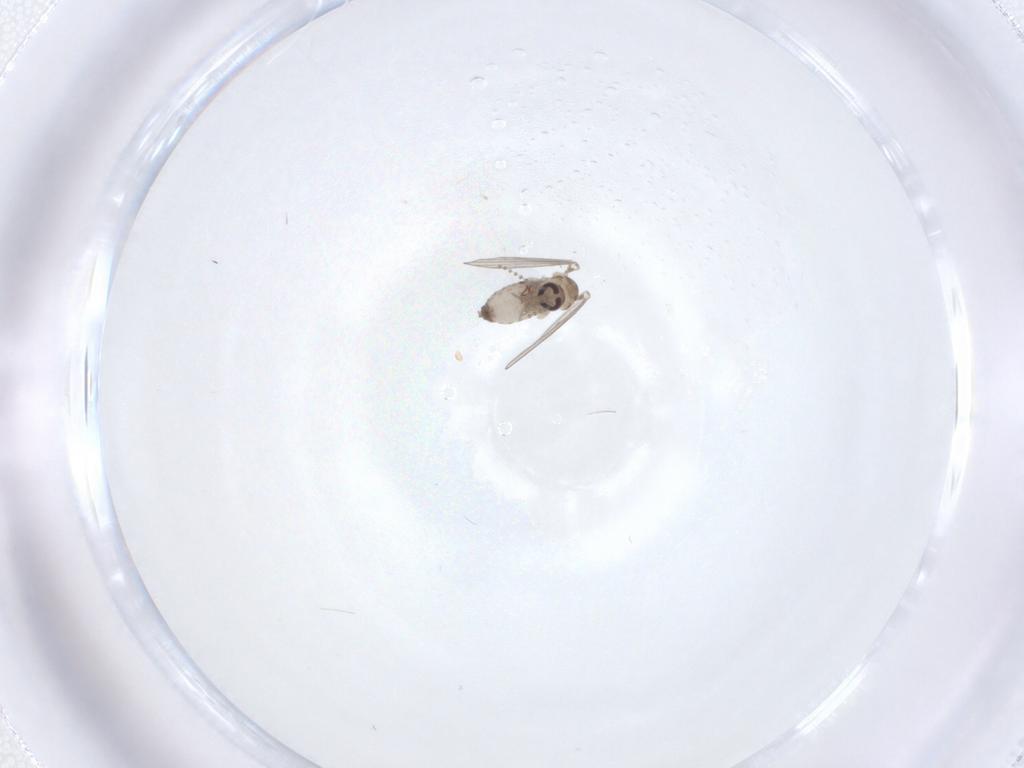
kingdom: Animalia
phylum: Arthropoda
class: Insecta
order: Diptera
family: Psychodidae
